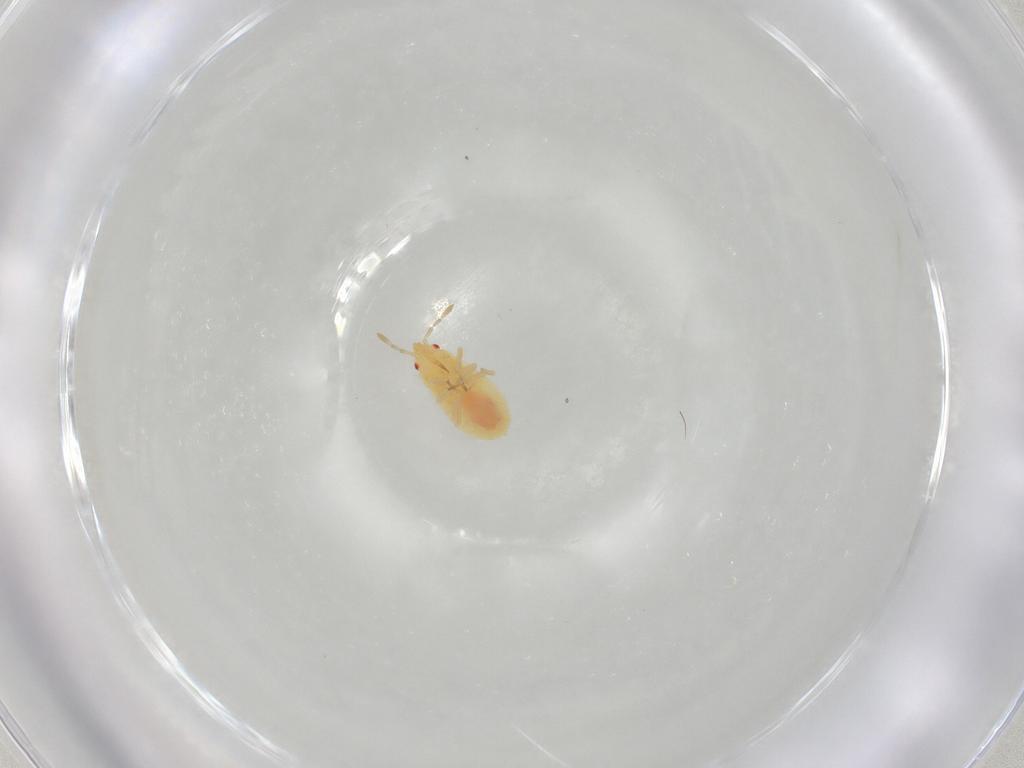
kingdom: Animalia
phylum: Arthropoda
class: Insecta
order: Hemiptera
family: Anthocoridae
